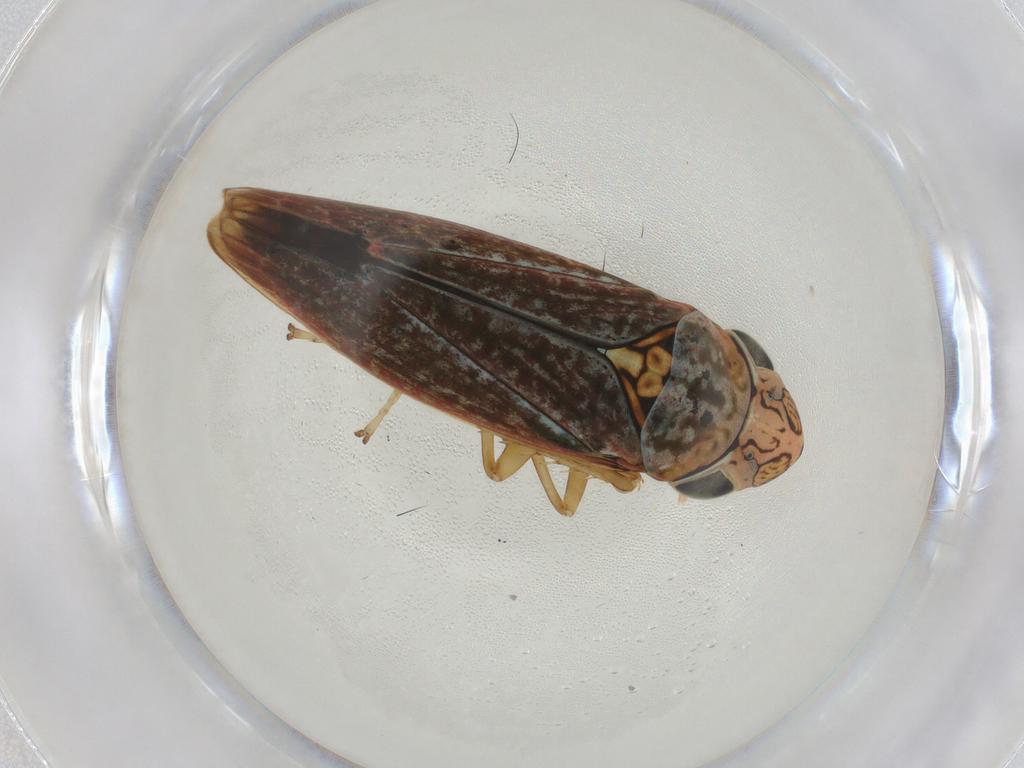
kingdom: Animalia
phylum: Arthropoda
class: Insecta
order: Hemiptera
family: Cicadellidae
